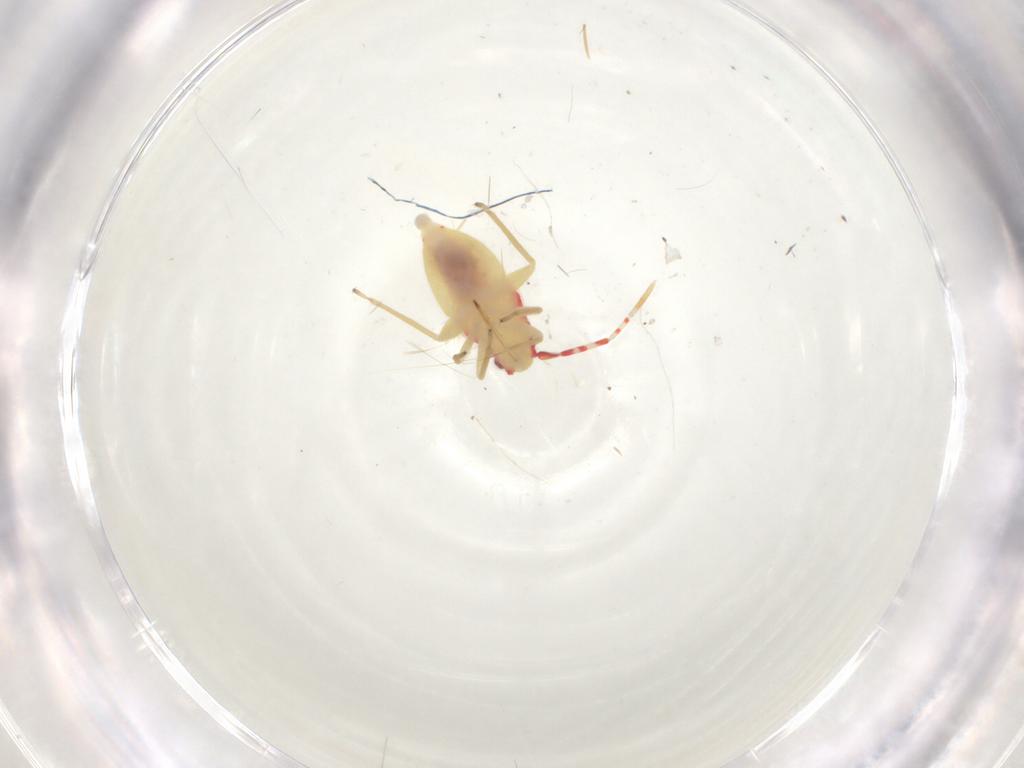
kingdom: Animalia
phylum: Arthropoda
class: Insecta
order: Hemiptera
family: Miridae
